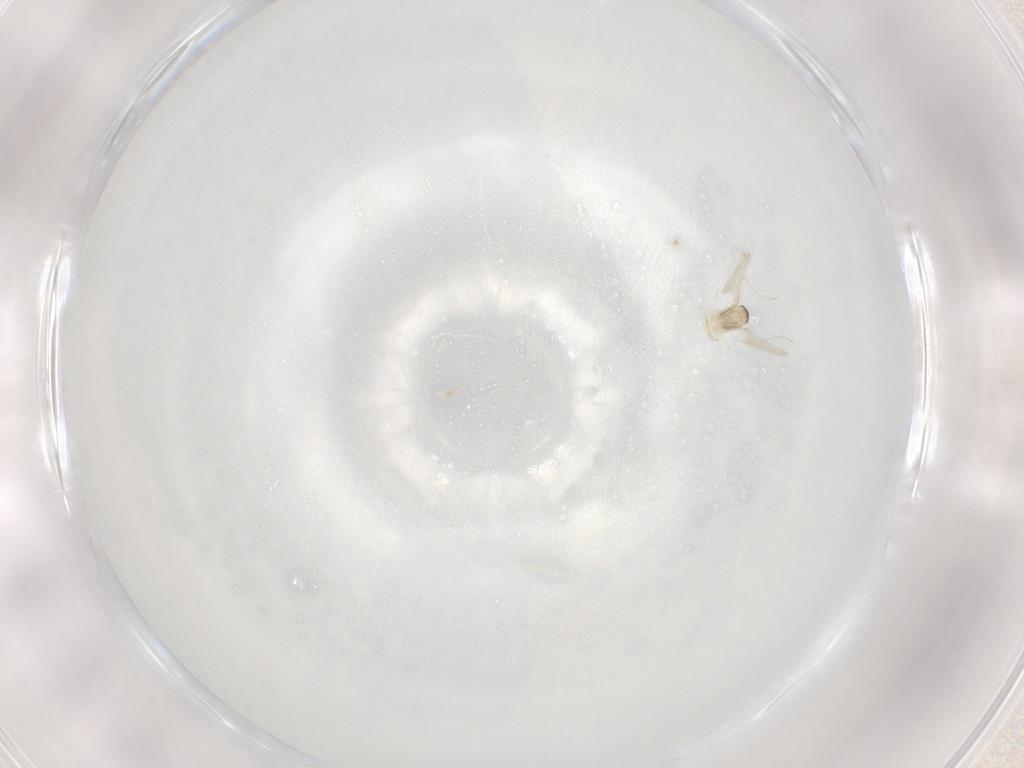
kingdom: Animalia
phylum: Arthropoda
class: Insecta
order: Diptera
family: Cecidomyiidae
